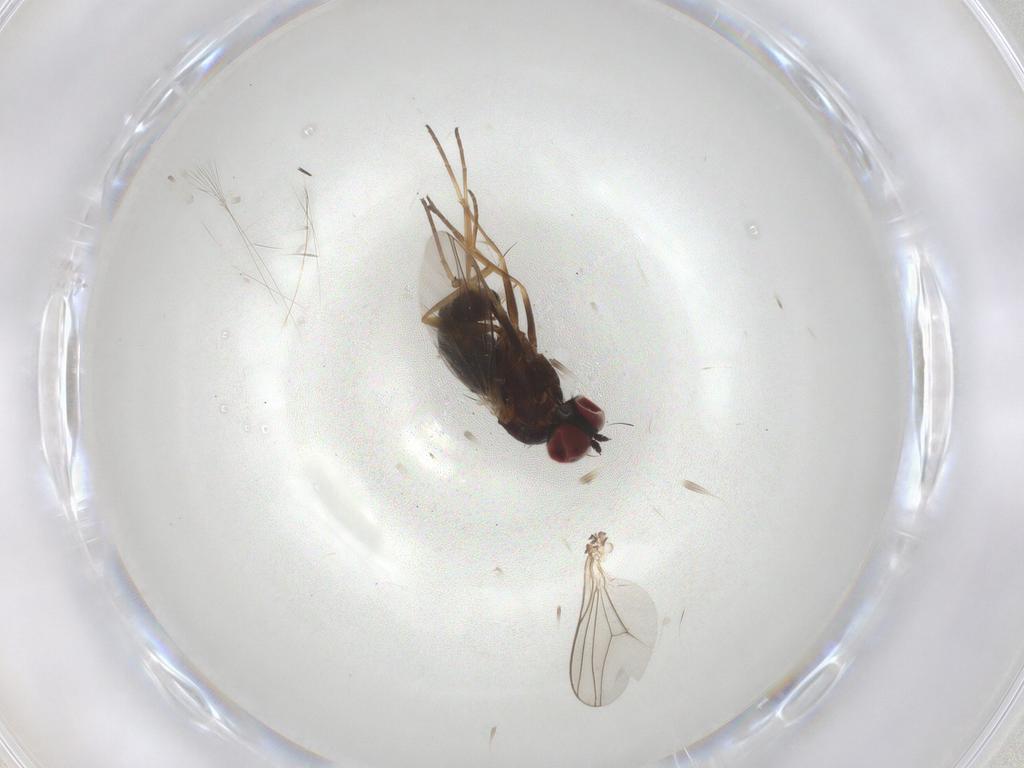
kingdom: Animalia
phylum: Arthropoda
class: Insecta
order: Diptera
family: Dolichopodidae
